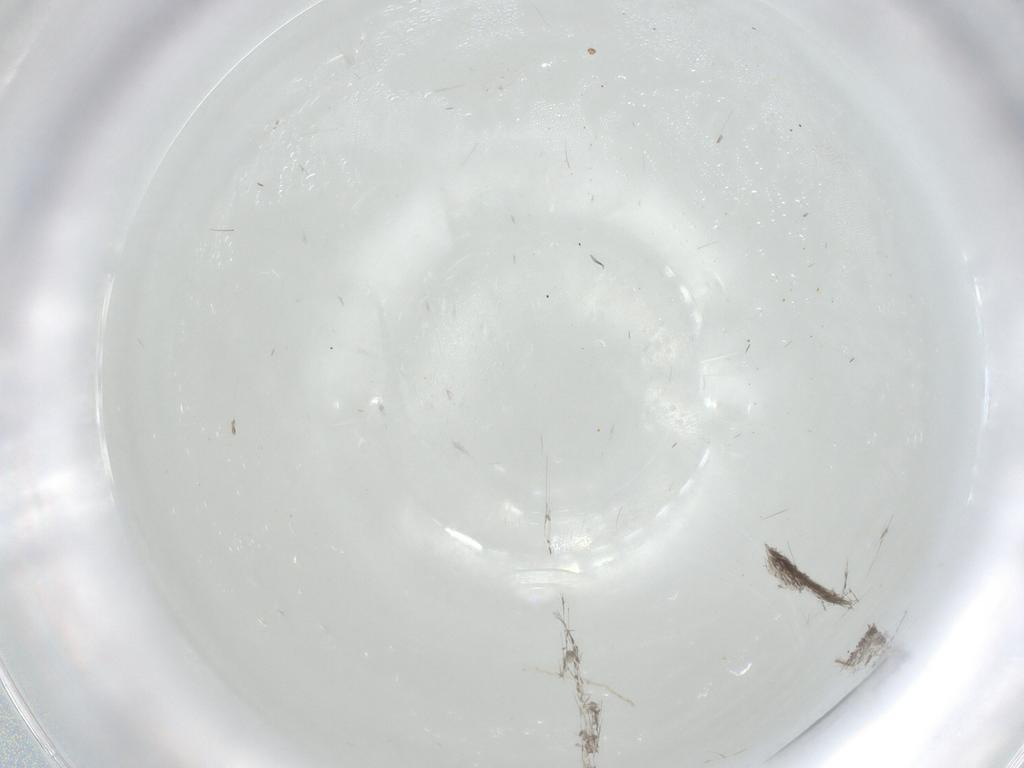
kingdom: Animalia
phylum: Arthropoda
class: Insecta
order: Lepidoptera
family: Nepticulidae
